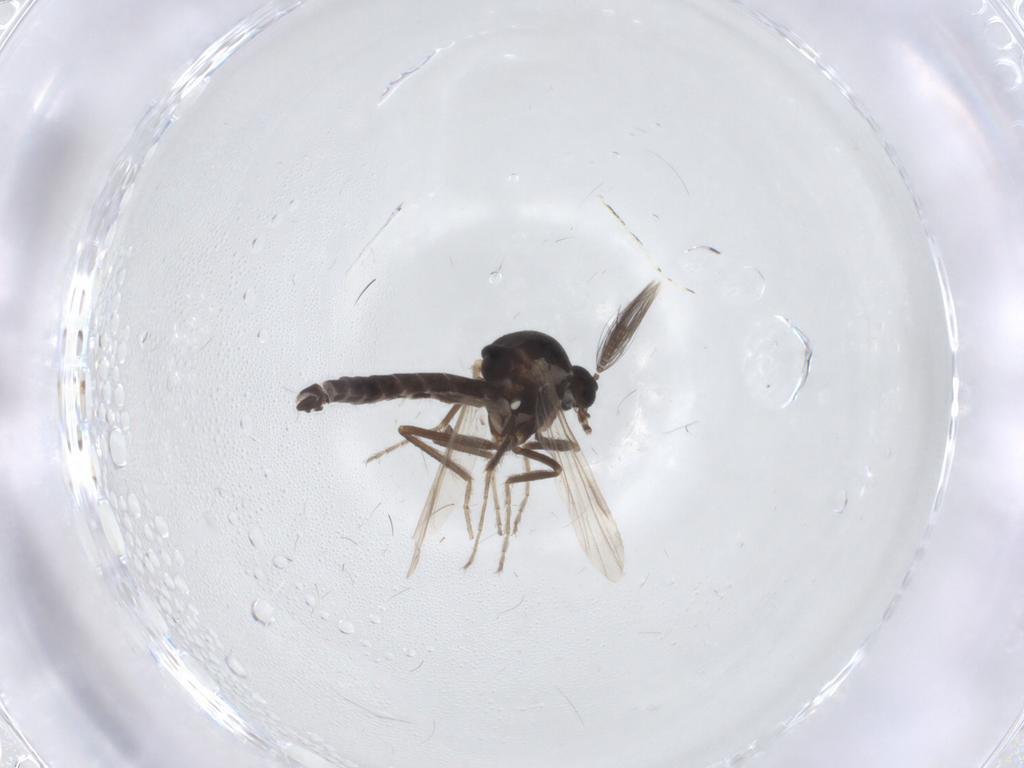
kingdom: Animalia
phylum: Arthropoda
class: Insecta
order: Diptera
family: Ceratopogonidae
